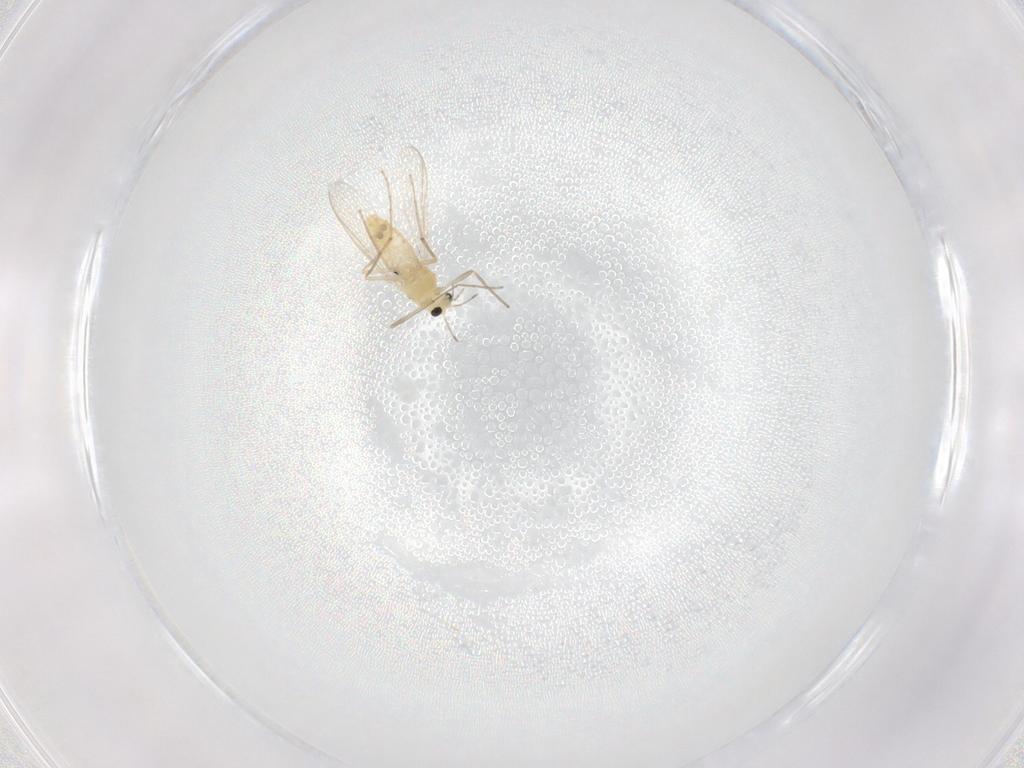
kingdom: Animalia
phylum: Arthropoda
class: Insecta
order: Diptera
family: Chironomidae
